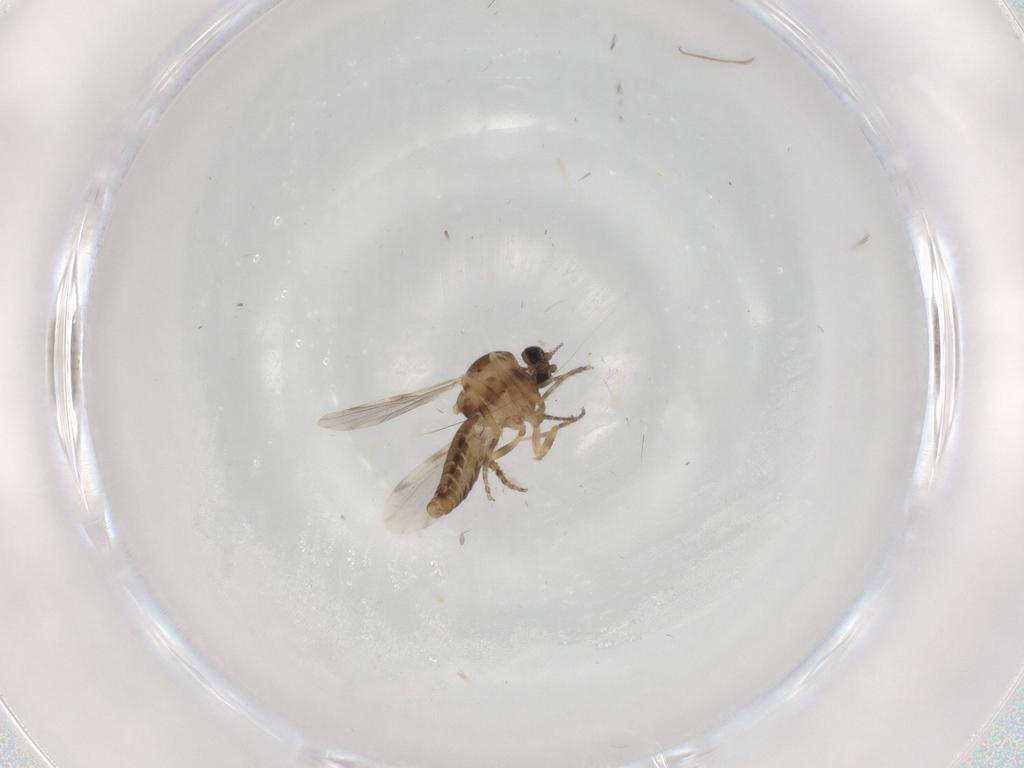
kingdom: Animalia
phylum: Arthropoda
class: Insecta
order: Diptera
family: Ceratopogonidae
